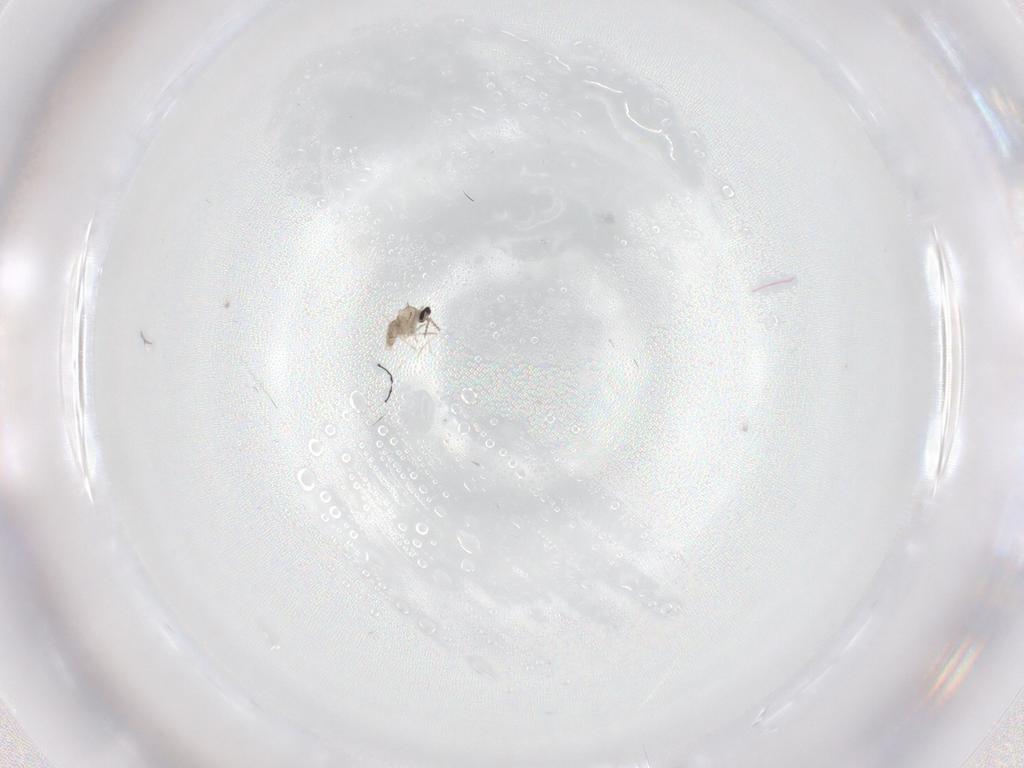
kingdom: Animalia
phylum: Arthropoda
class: Insecta
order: Diptera
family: Cecidomyiidae
